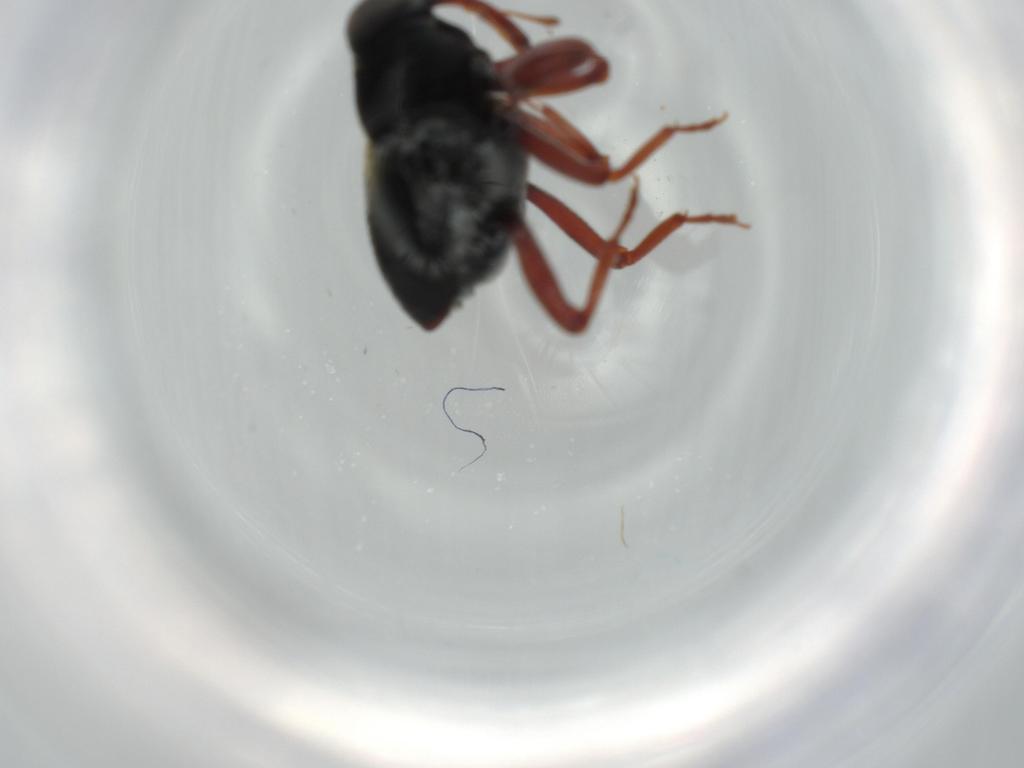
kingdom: Animalia
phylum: Arthropoda
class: Insecta
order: Coleoptera
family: Curculionidae
